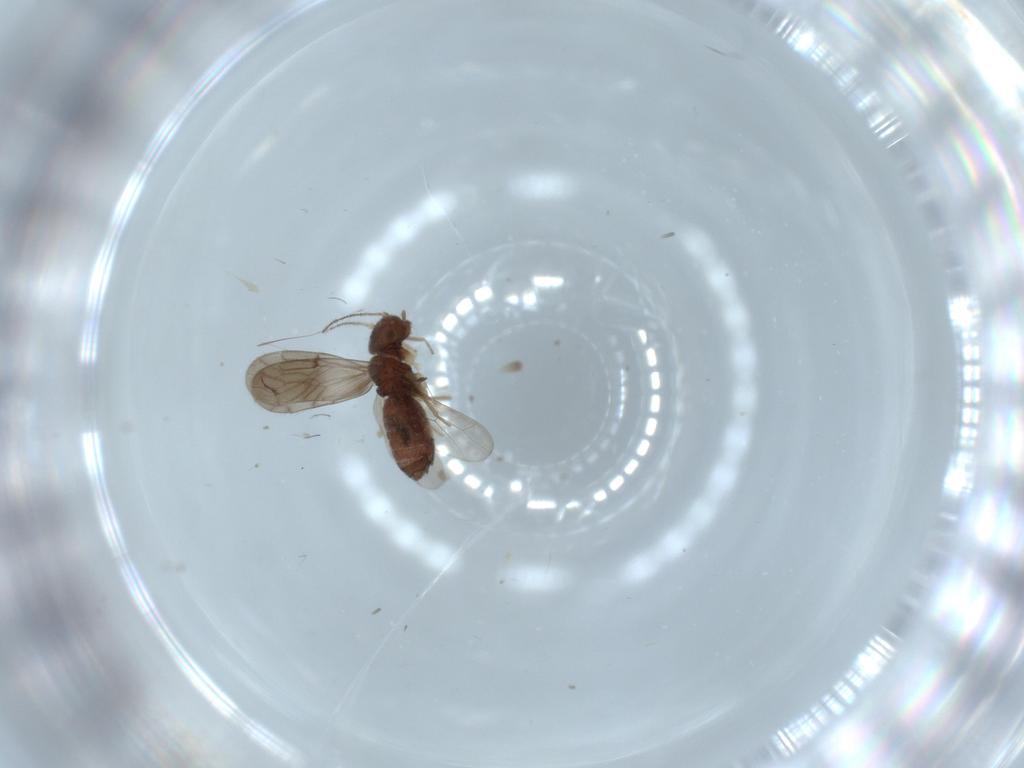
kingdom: Animalia
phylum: Arthropoda
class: Insecta
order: Psocodea
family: Ectopsocidae
